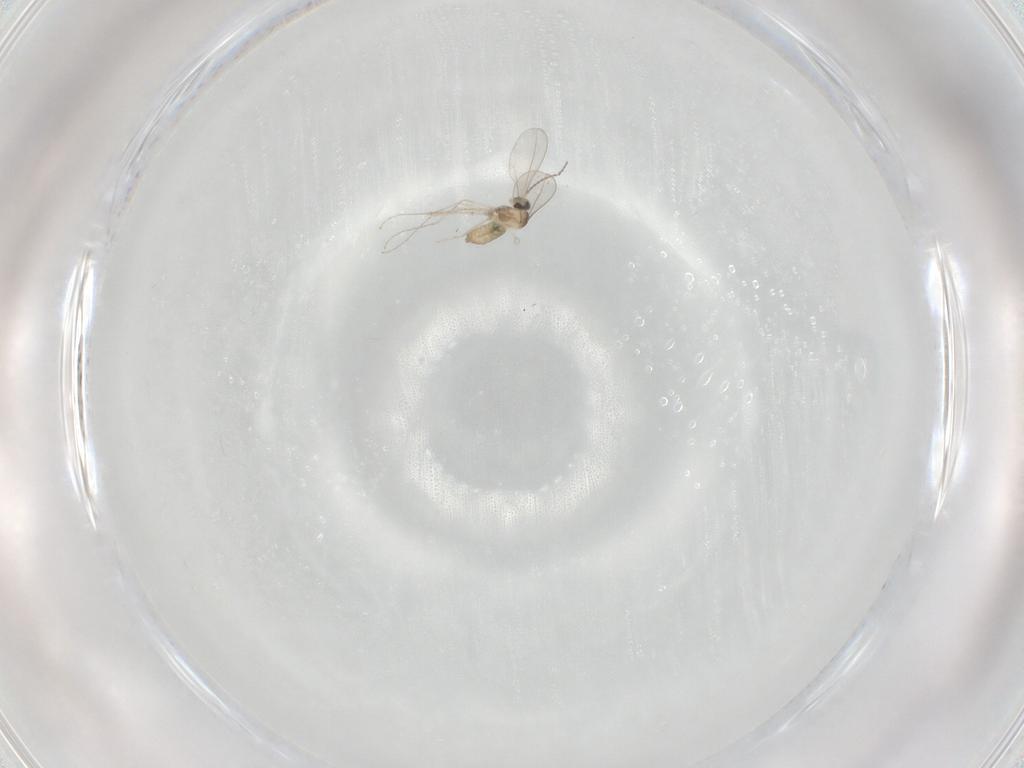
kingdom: Animalia
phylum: Arthropoda
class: Insecta
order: Diptera
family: Cecidomyiidae
